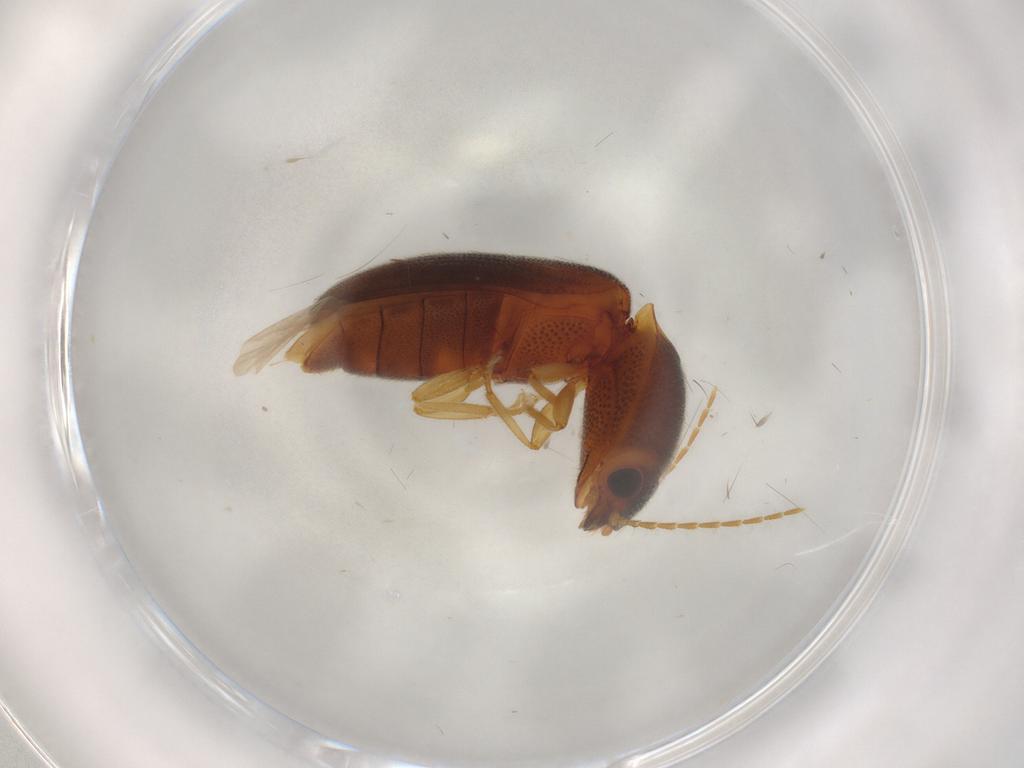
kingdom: Animalia
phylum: Arthropoda
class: Insecta
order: Coleoptera
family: Elateridae
